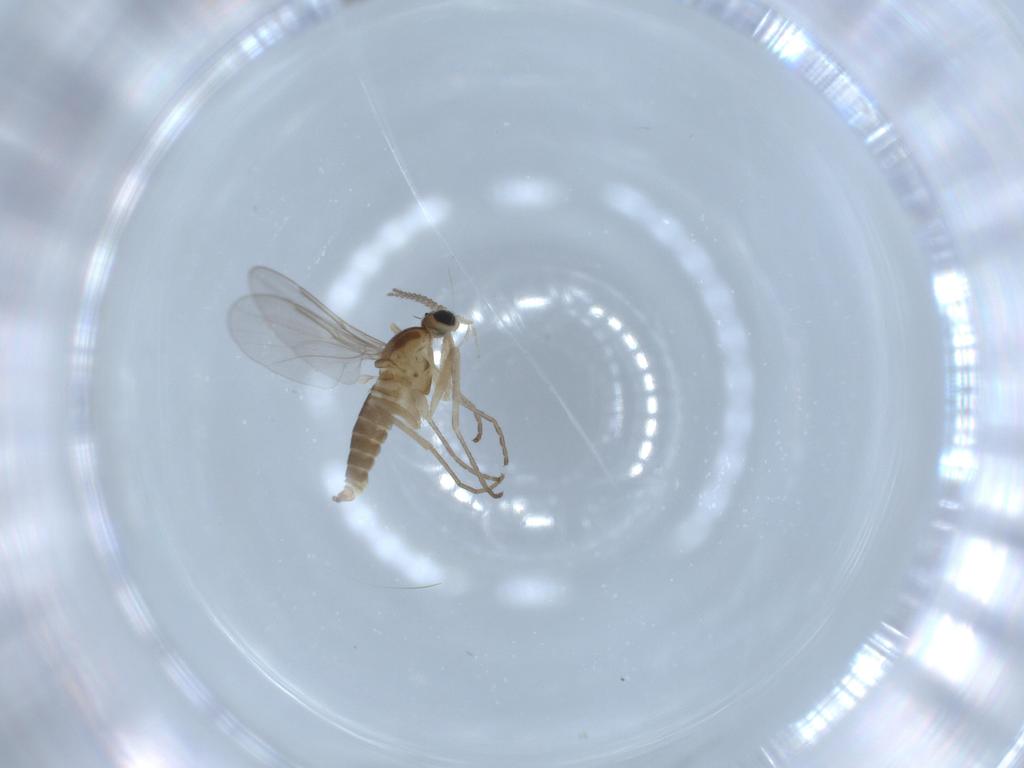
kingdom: Animalia
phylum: Arthropoda
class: Insecta
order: Diptera
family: Cecidomyiidae
